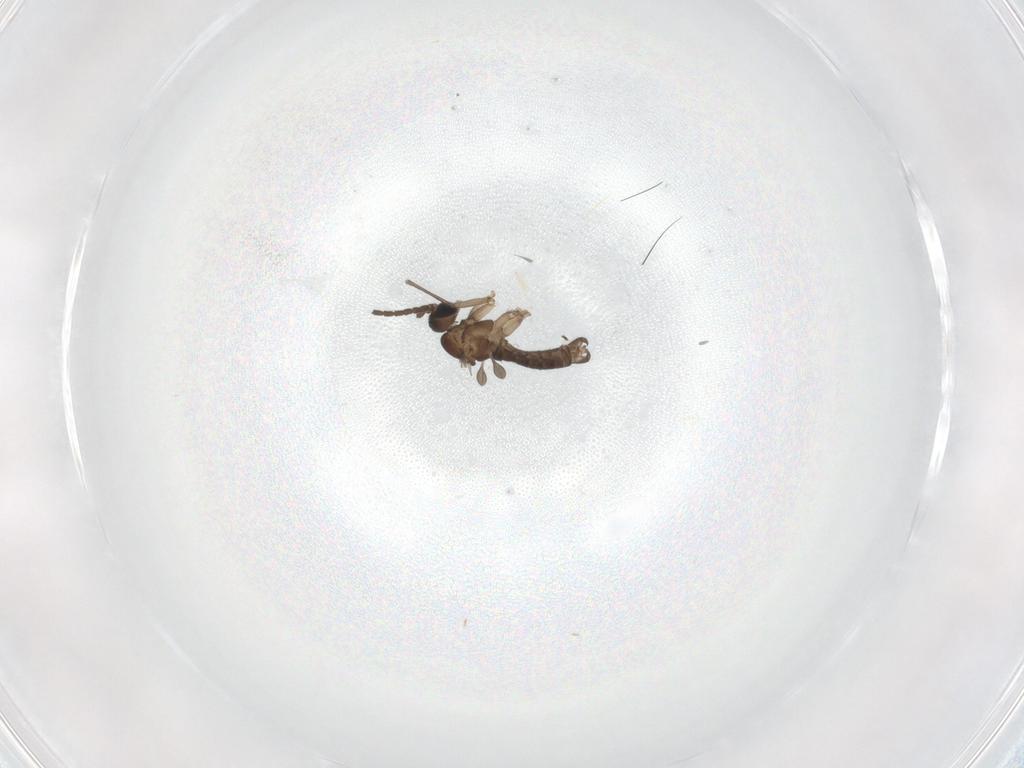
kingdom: Animalia
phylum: Arthropoda
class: Insecta
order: Diptera
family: Sciaridae
